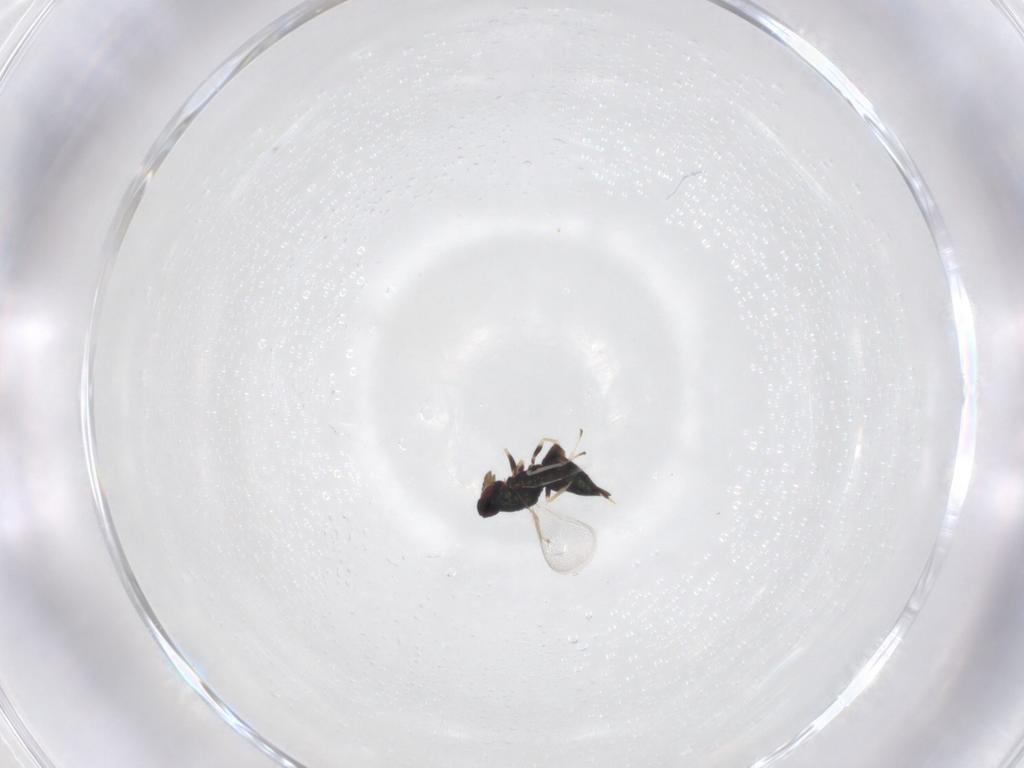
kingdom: Animalia
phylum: Arthropoda
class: Insecta
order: Hymenoptera
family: Eulophidae
